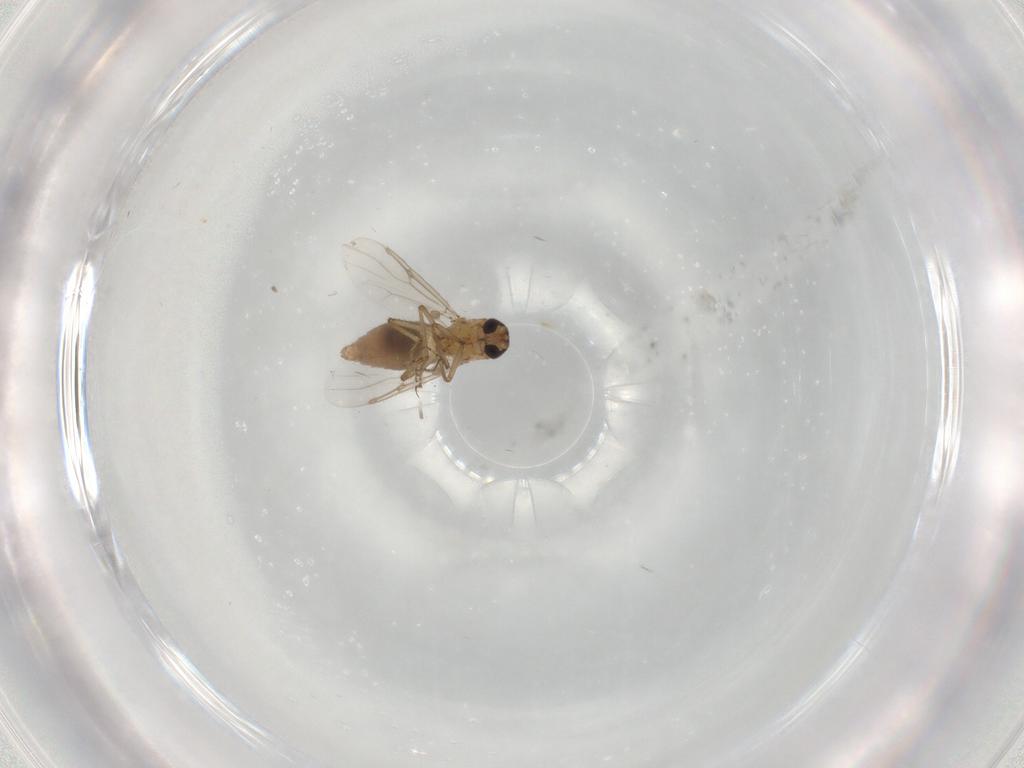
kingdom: Animalia
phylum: Arthropoda
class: Insecta
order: Diptera
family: Ceratopogonidae
